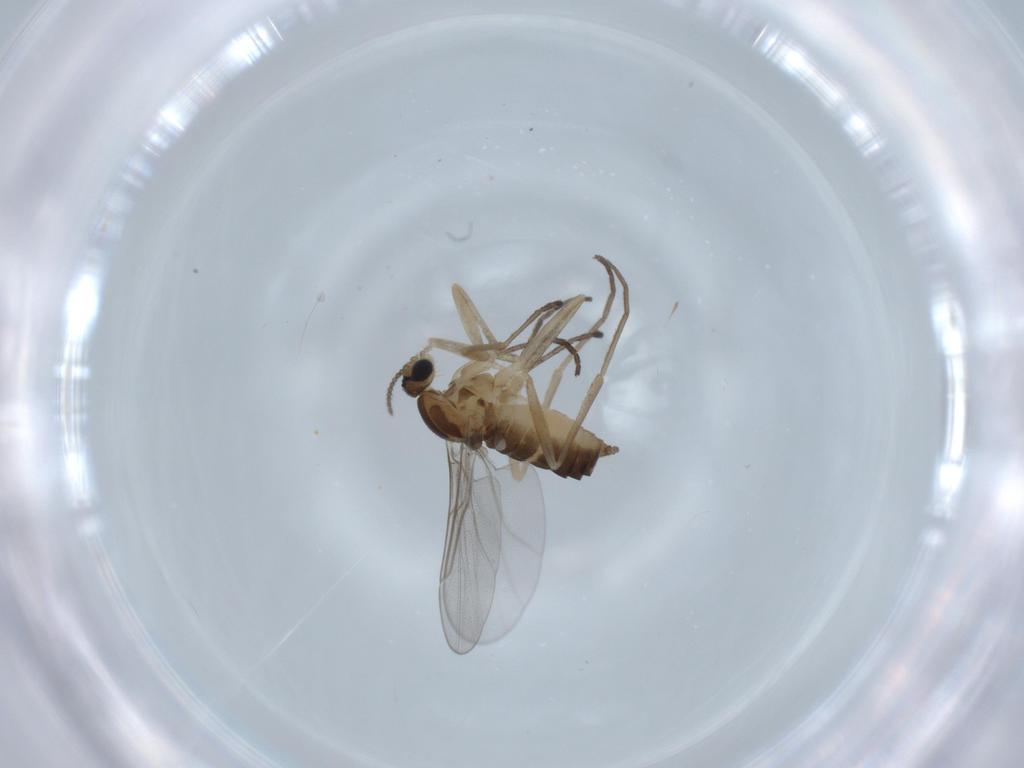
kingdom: Animalia
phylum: Arthropoda
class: Insecta
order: Diptera
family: Cecidomyiidae
